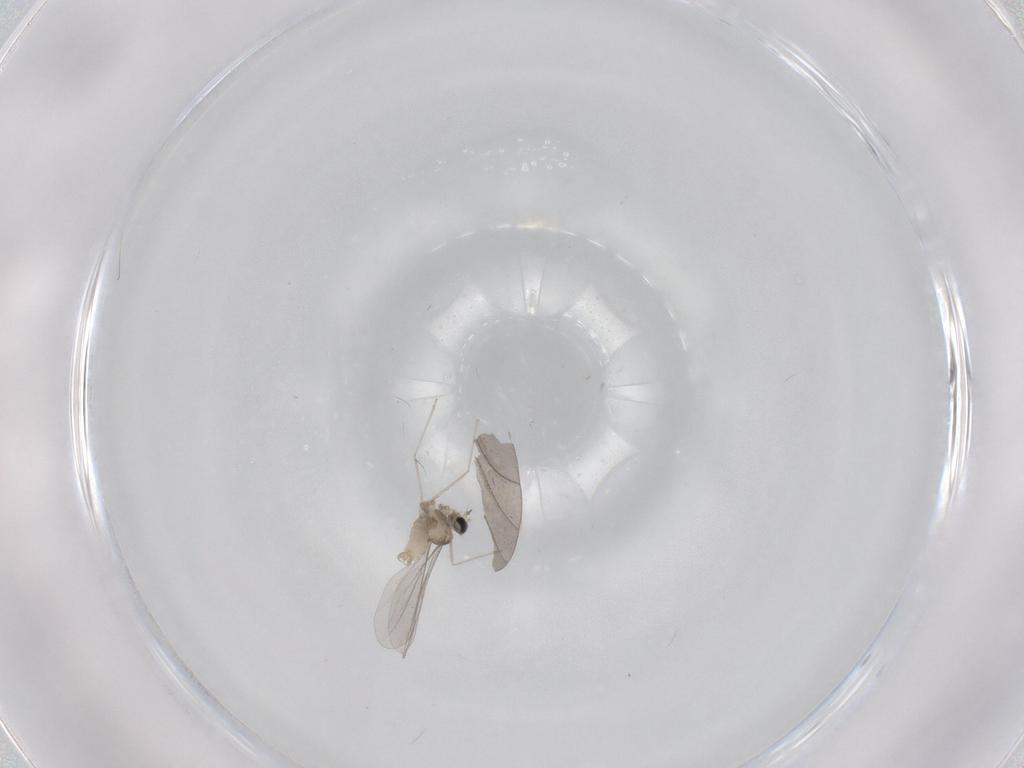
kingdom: Animalia
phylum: Arthropoda
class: Insecta
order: Diptera
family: Cecidomyiidae
